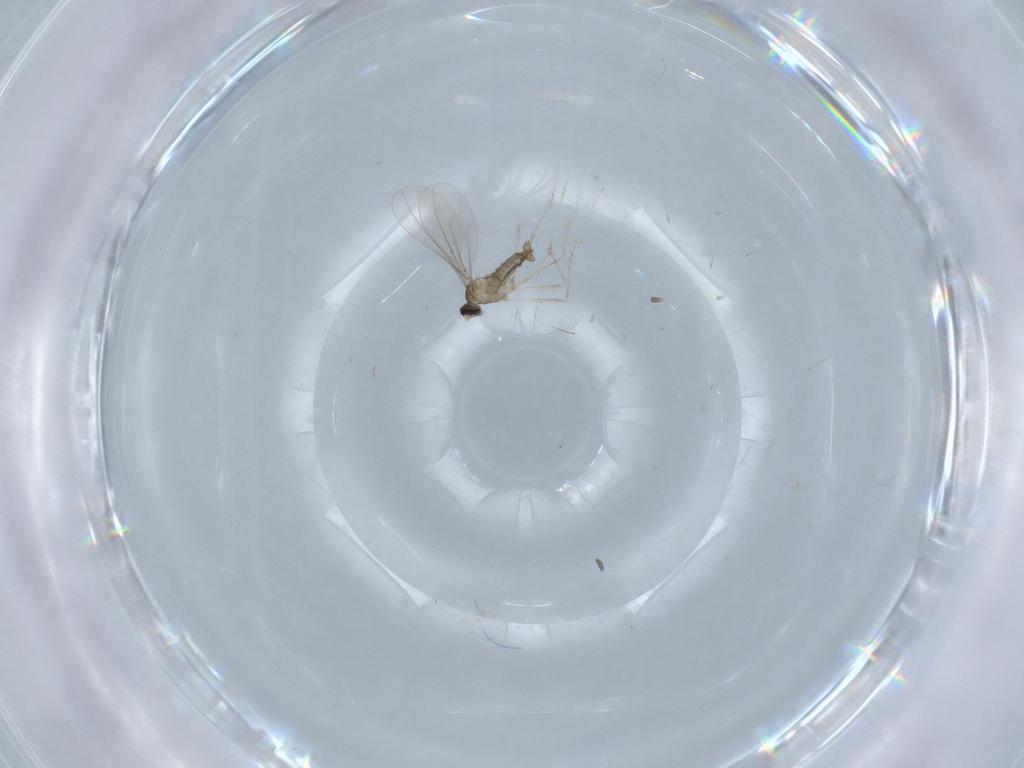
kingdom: Animalia
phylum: Arthropoda
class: Insecta
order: Diptera
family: Cecidomyiidae
